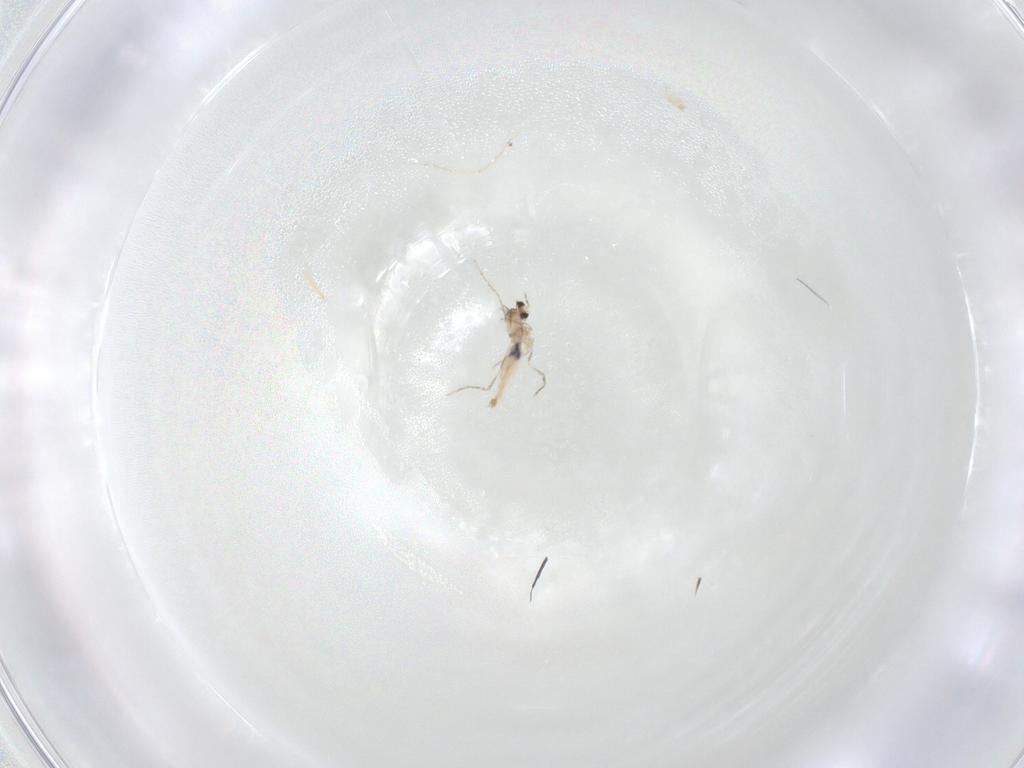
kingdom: Animalia
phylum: Arthropoda
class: Insecta
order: Diptera
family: Cecidomyiidae
